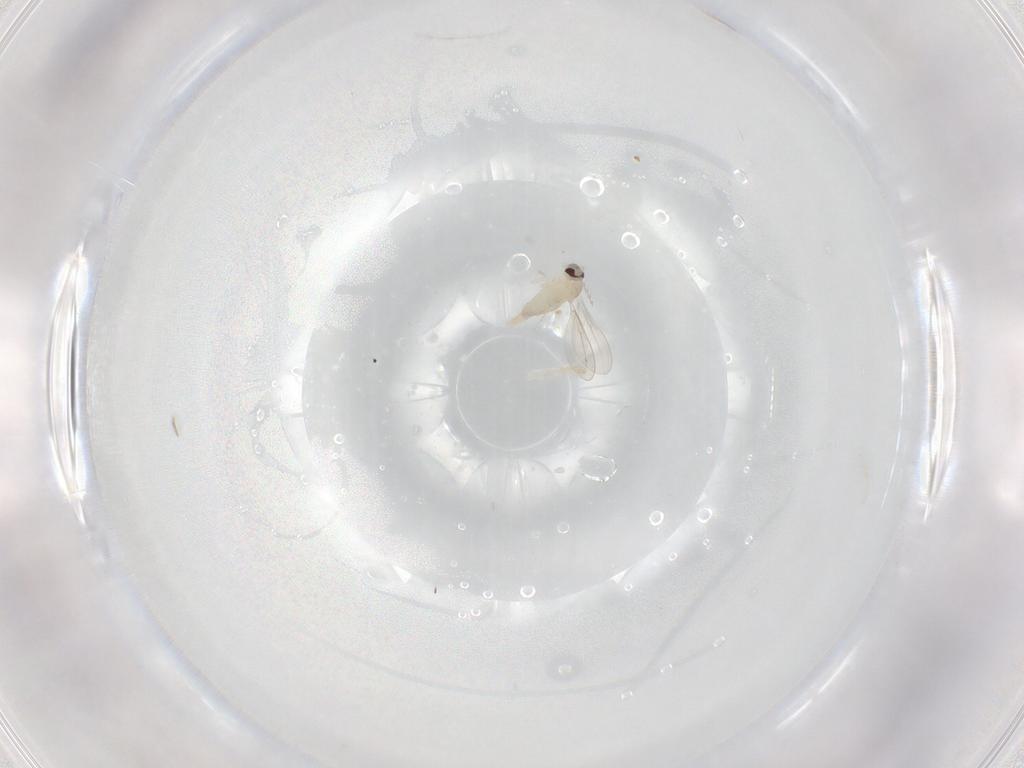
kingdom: Animalia
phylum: Arthropoda
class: Insecta
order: Diptera
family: Cecidomyiidae
